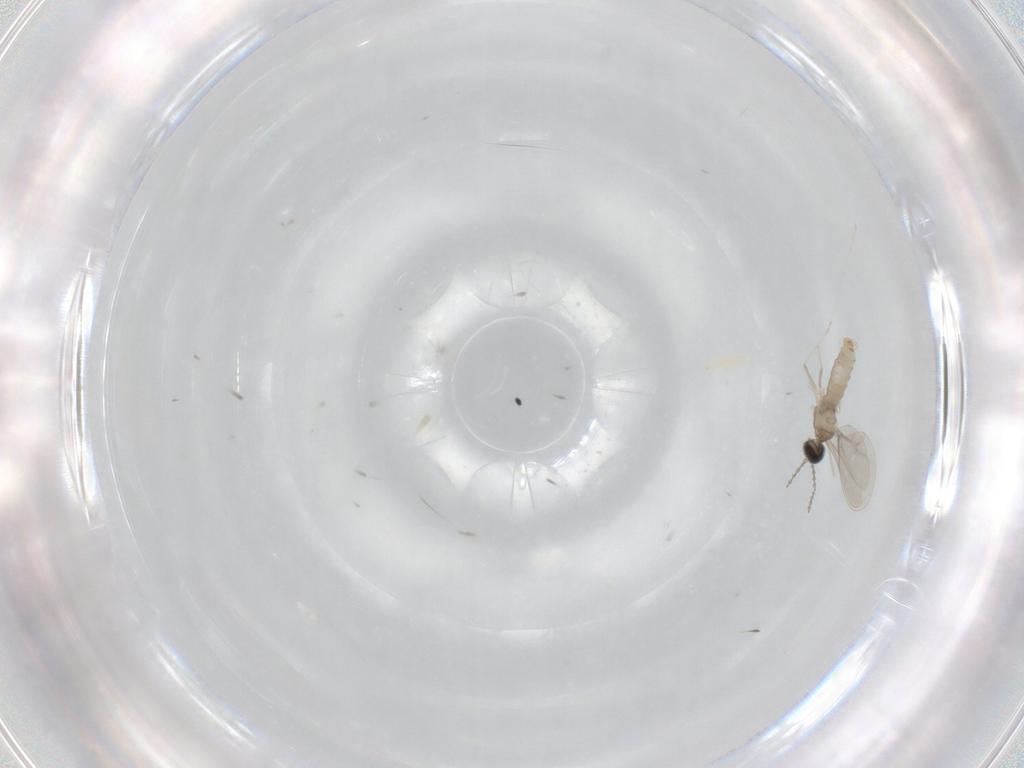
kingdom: Animalia
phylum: Arthropoda
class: Insecta
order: Diptera
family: Cecidomyiidae
